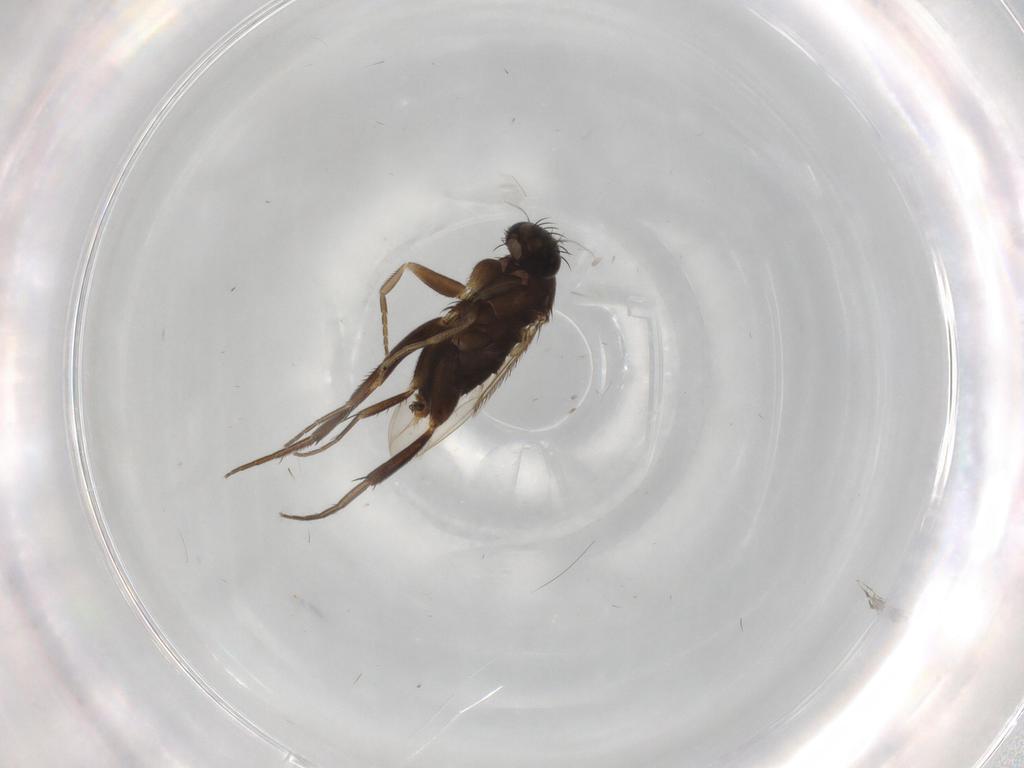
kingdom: Animalia
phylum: Arthropoda
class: Insecta
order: Diptera
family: Phoridae
